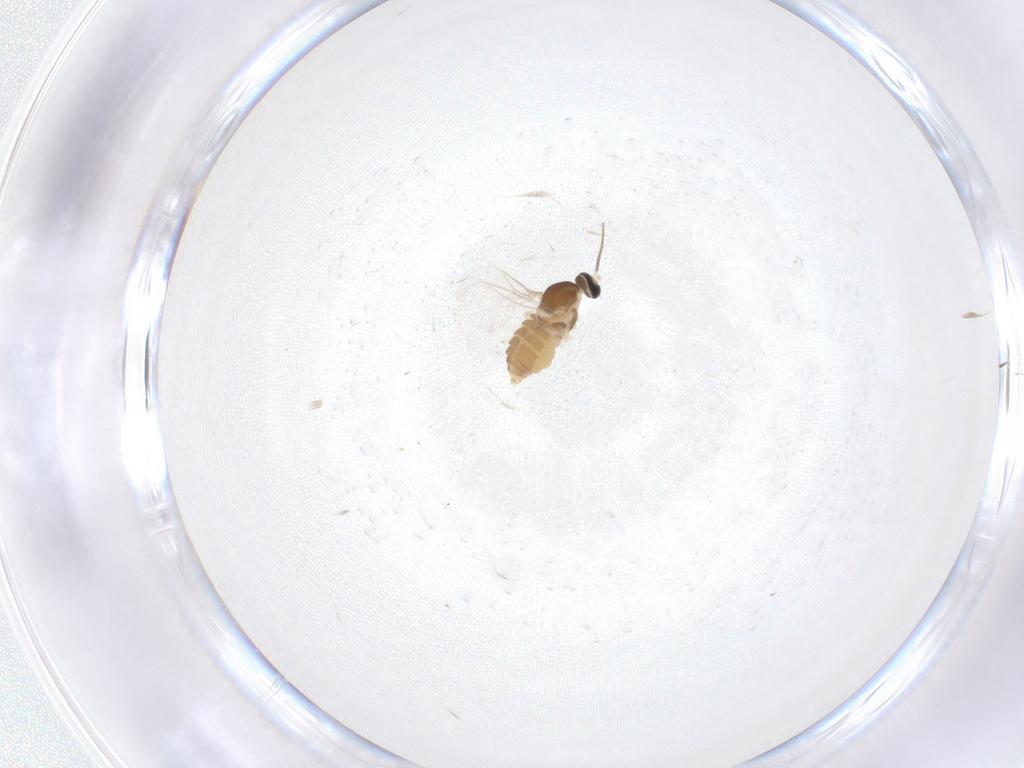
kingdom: Animalia
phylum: Arthropoda
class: Insecta
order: Diptera
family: Cecidomyiidae
